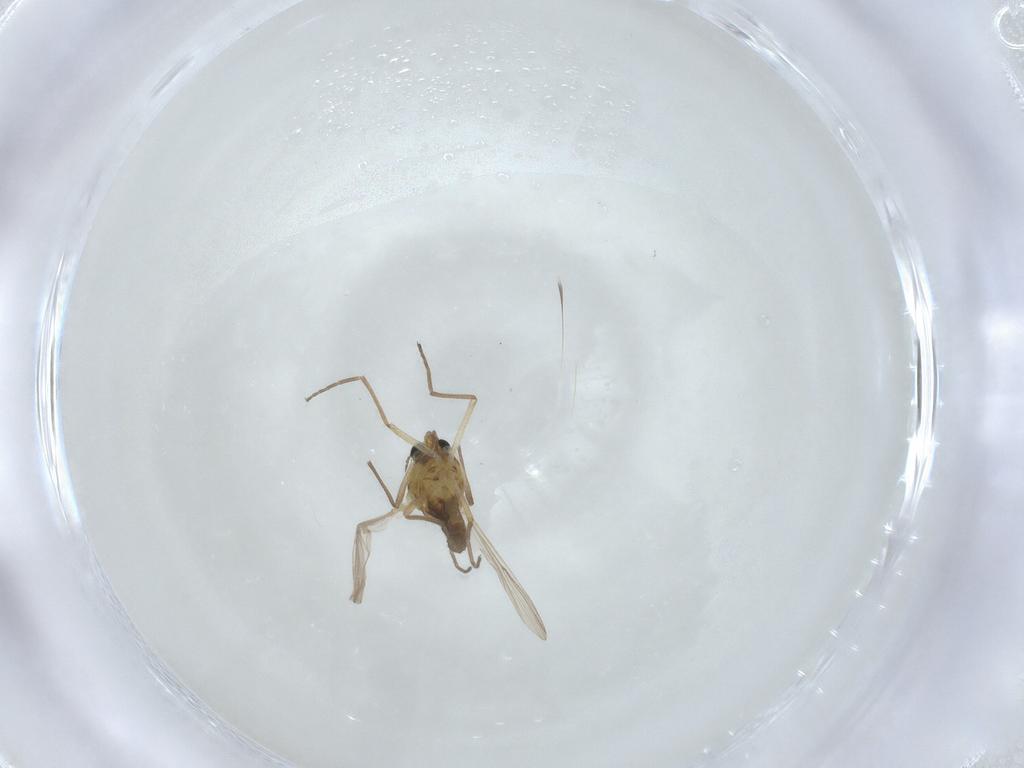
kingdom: Animalia
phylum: Arthropoda
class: Insecta
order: Diptera
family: Chironomidae
